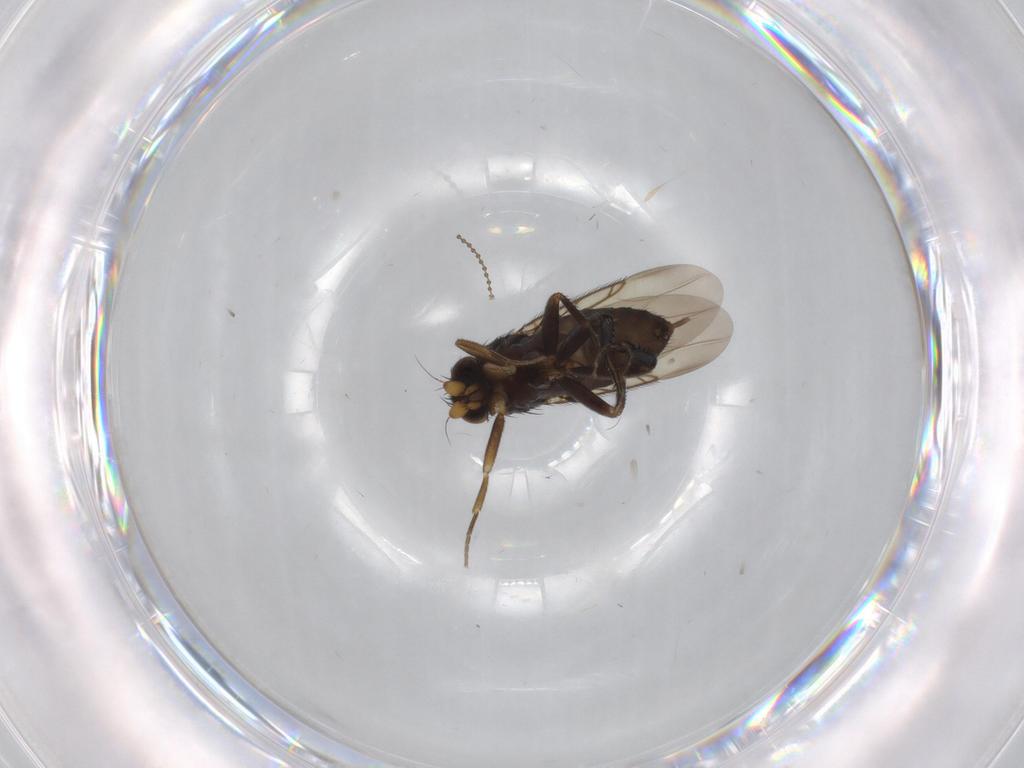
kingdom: Animalia
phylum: Arthropoda
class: Insecta
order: Diptera
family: Phoridae
